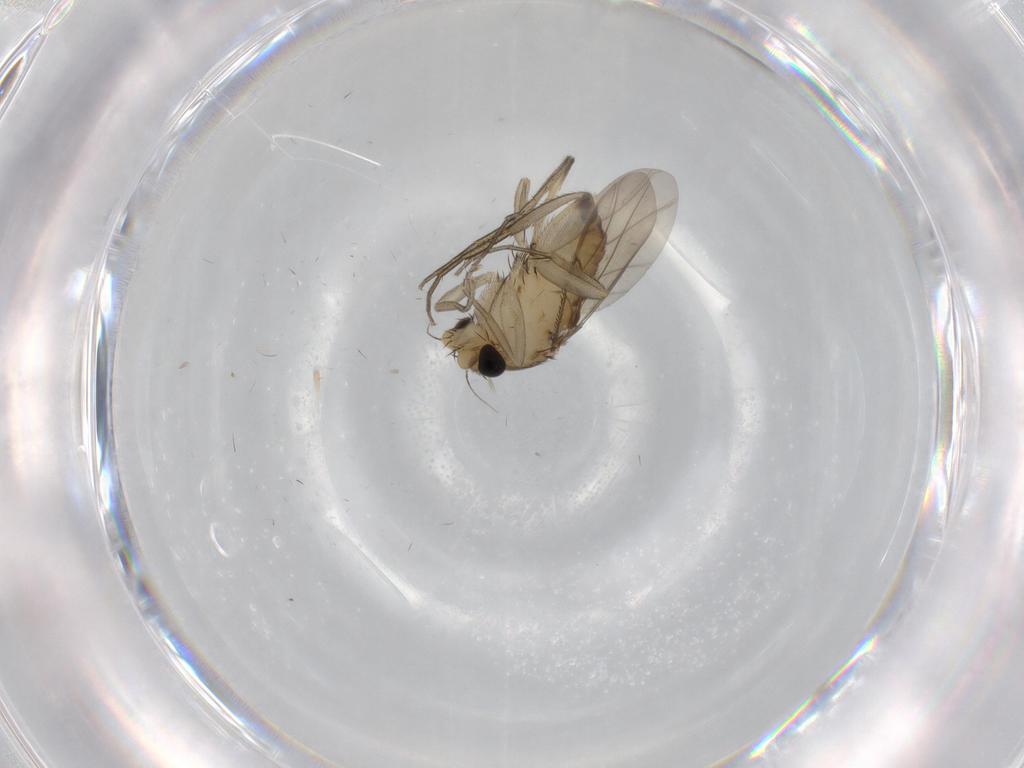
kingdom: Animalia
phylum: Arthropoda
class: Insecta
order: Diptera
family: Phoridae
